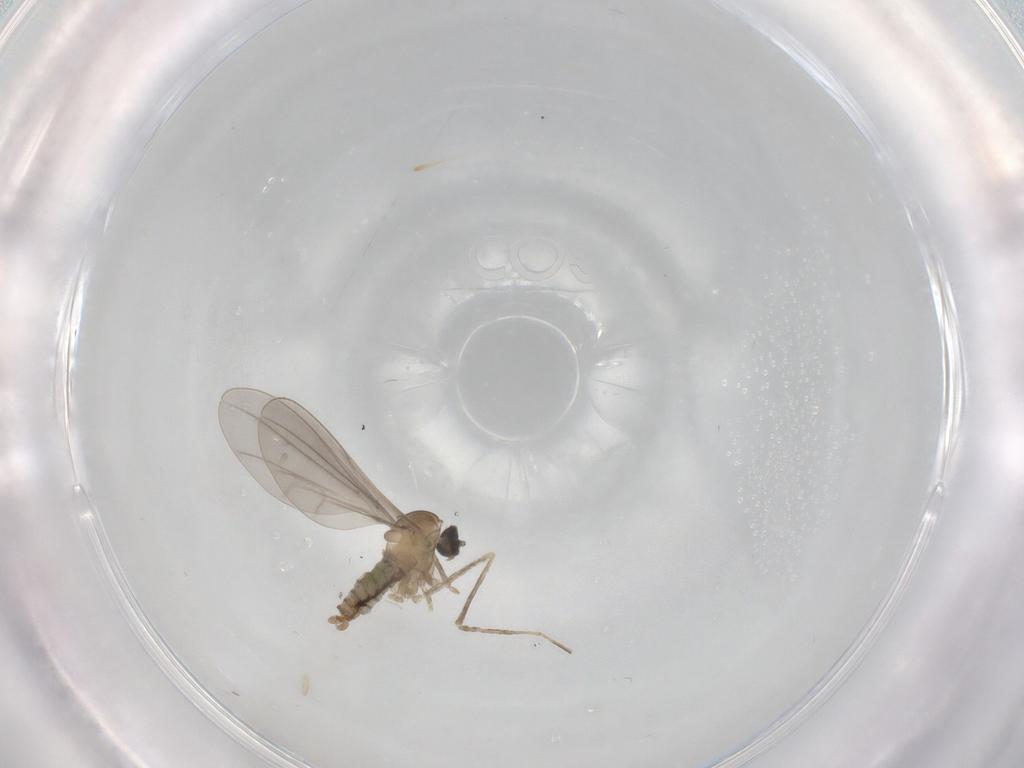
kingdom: Animalia
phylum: Arthropoda
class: Insecta
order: Diptera
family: Cecidomyiidae
